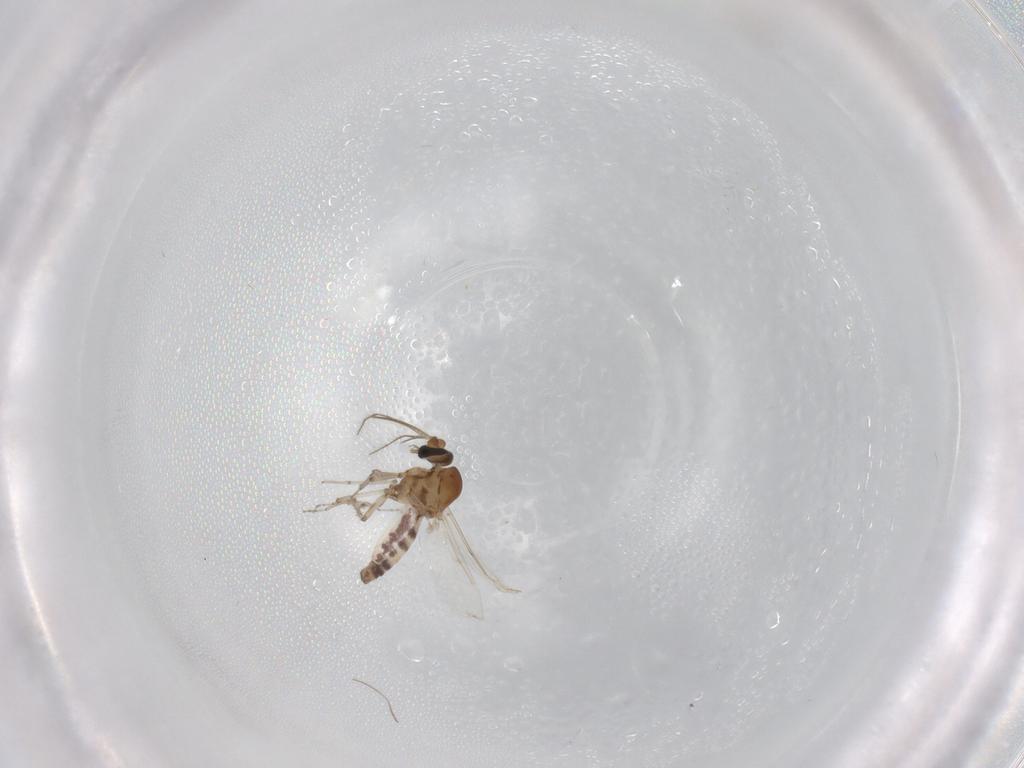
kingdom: Animalia
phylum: Arthropoda
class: Insecta
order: Diptera
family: Ceratopogonidae
